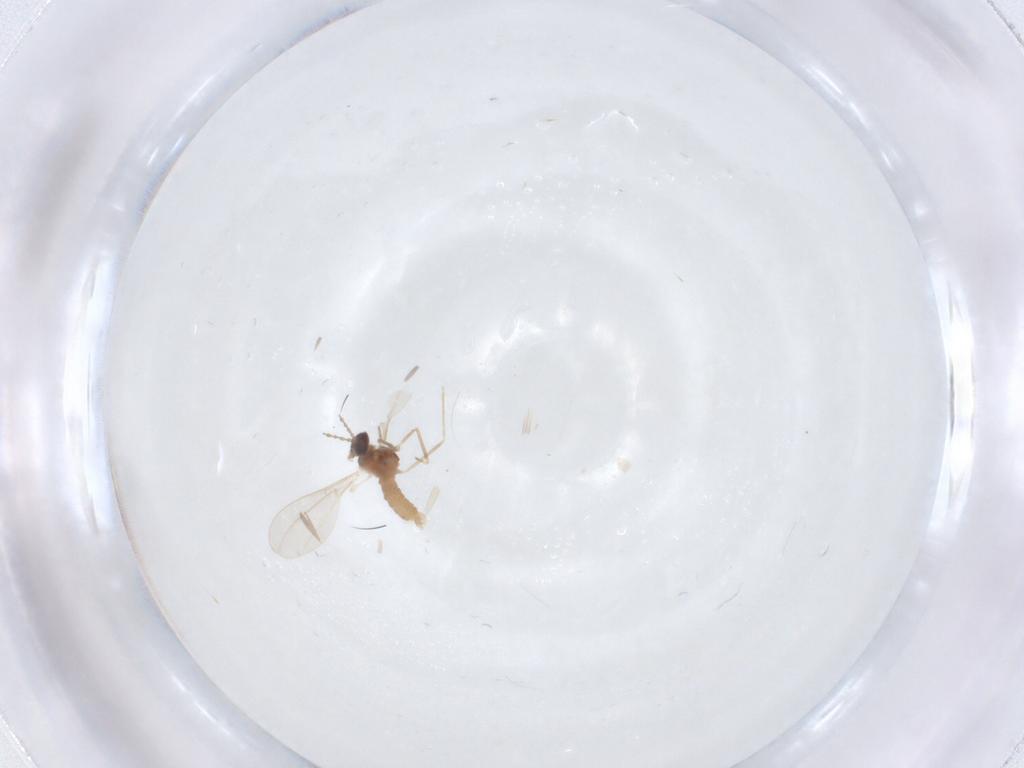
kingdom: Animalia
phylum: Arthropoda
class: Insecta
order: Diptera
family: Cecidomyiidae
